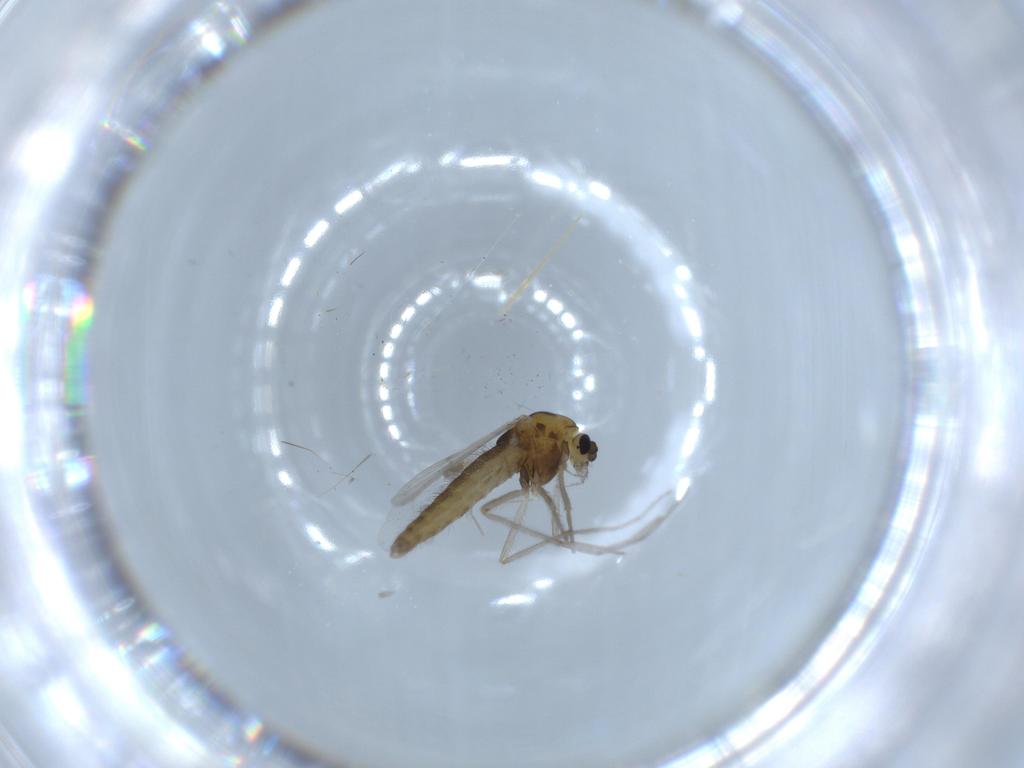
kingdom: Animalia
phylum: Arthropoda
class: Insecta
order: Diptera
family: Chironomidae
